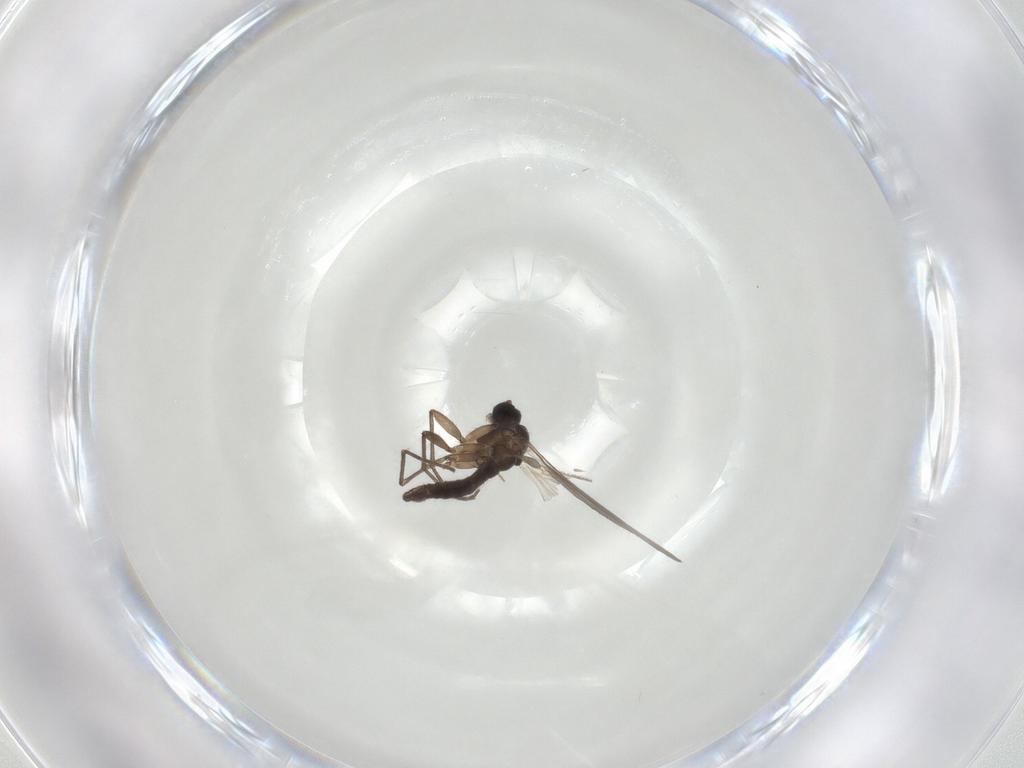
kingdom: Animalia
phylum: Arthropoda
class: Insecta
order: Diptera
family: Sciaridae
